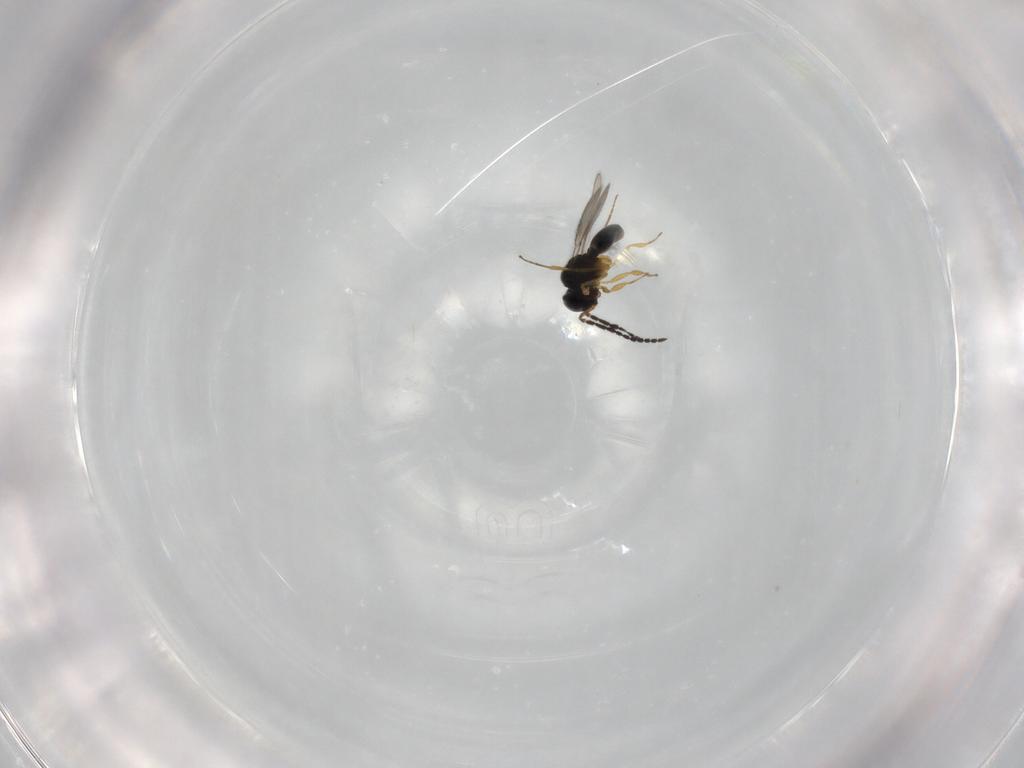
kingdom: Animalia
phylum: Arthropoda
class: Insecta
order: Hymenoptera
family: Scelionidae
